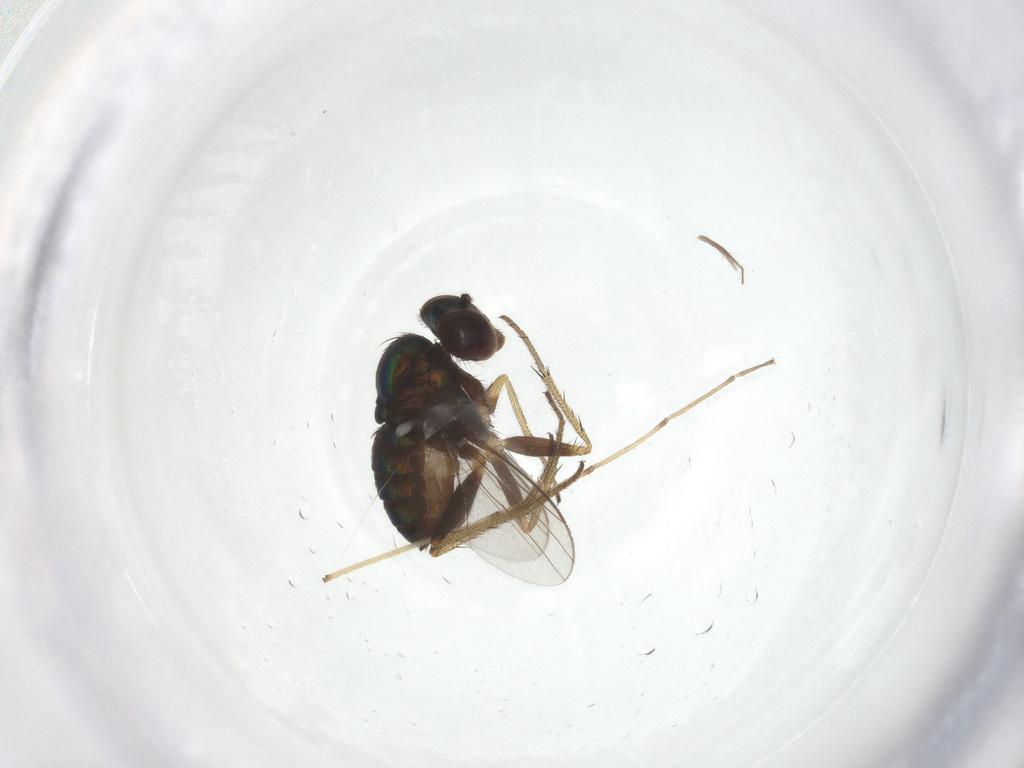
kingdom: Animalia
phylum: Arthropoda
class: Insecta
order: Diptera
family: Chironomidae
